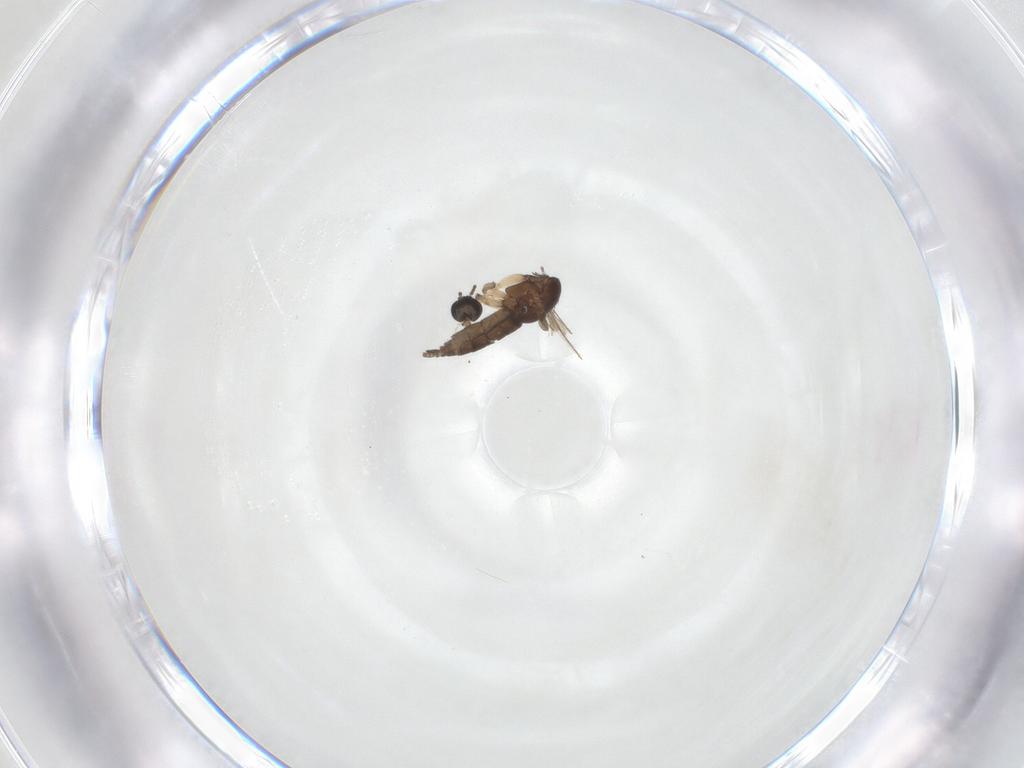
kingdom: Animalia
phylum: Arthropoda
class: Insecta
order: Diptera
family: Sciaridae
